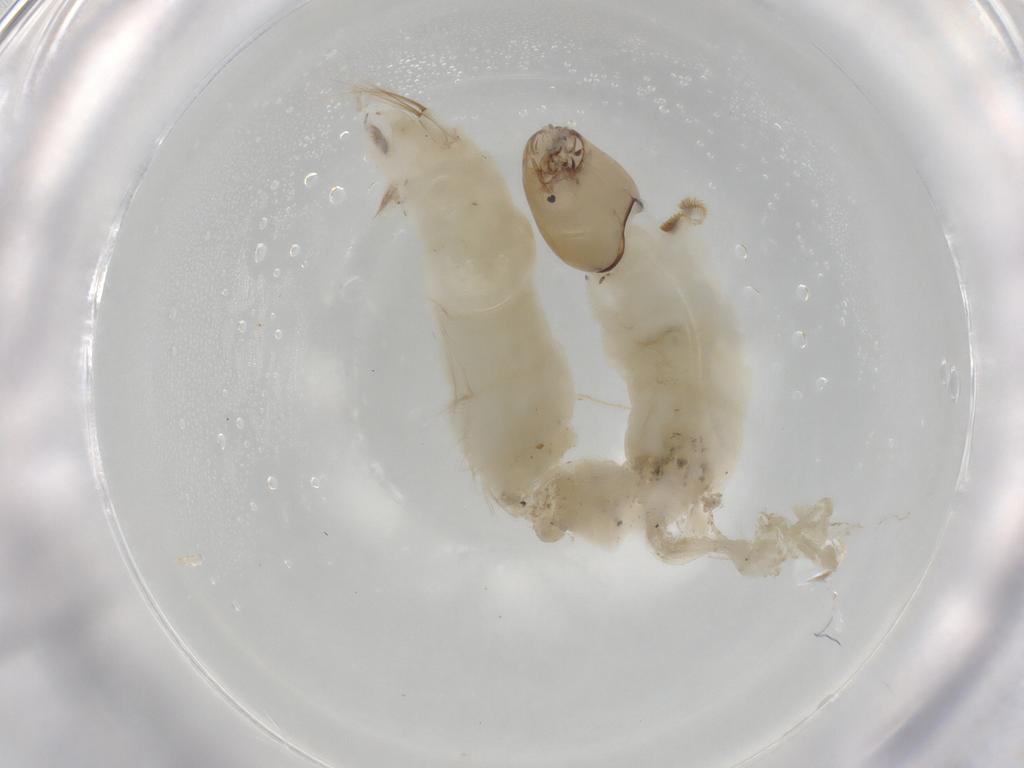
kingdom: Animalia
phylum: Arthropoda
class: Insecta
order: Diptera
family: Chironomidae
